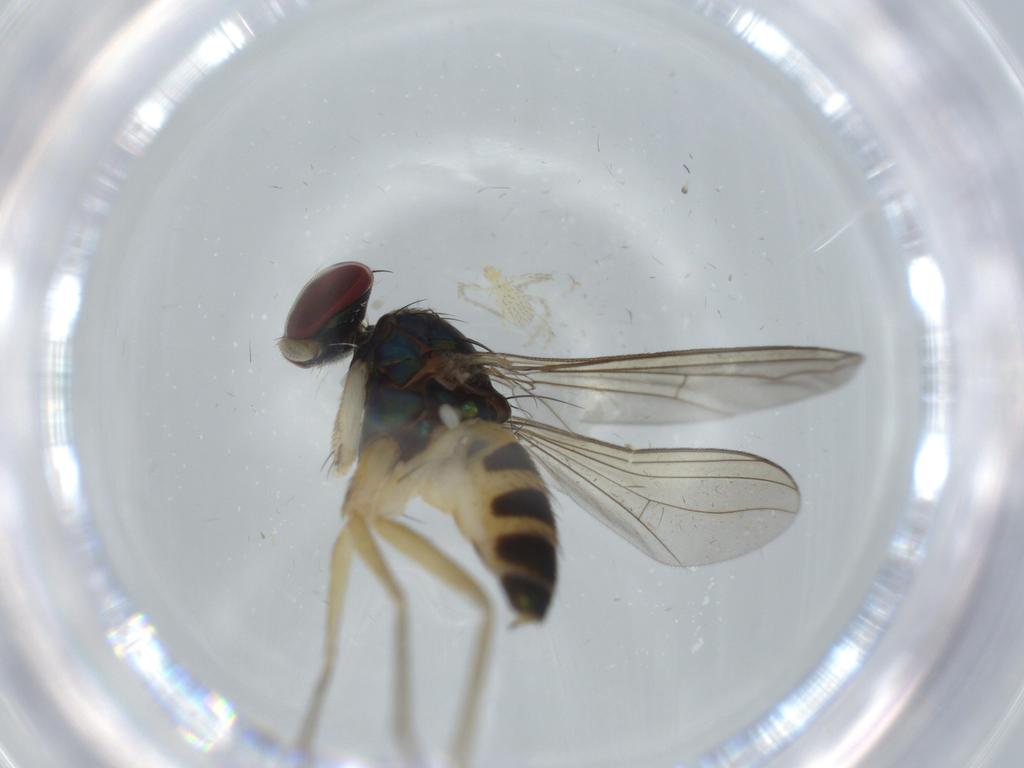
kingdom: Animalia
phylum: Arthropoda
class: Insecta
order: Diptera
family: Dolichopodidae
